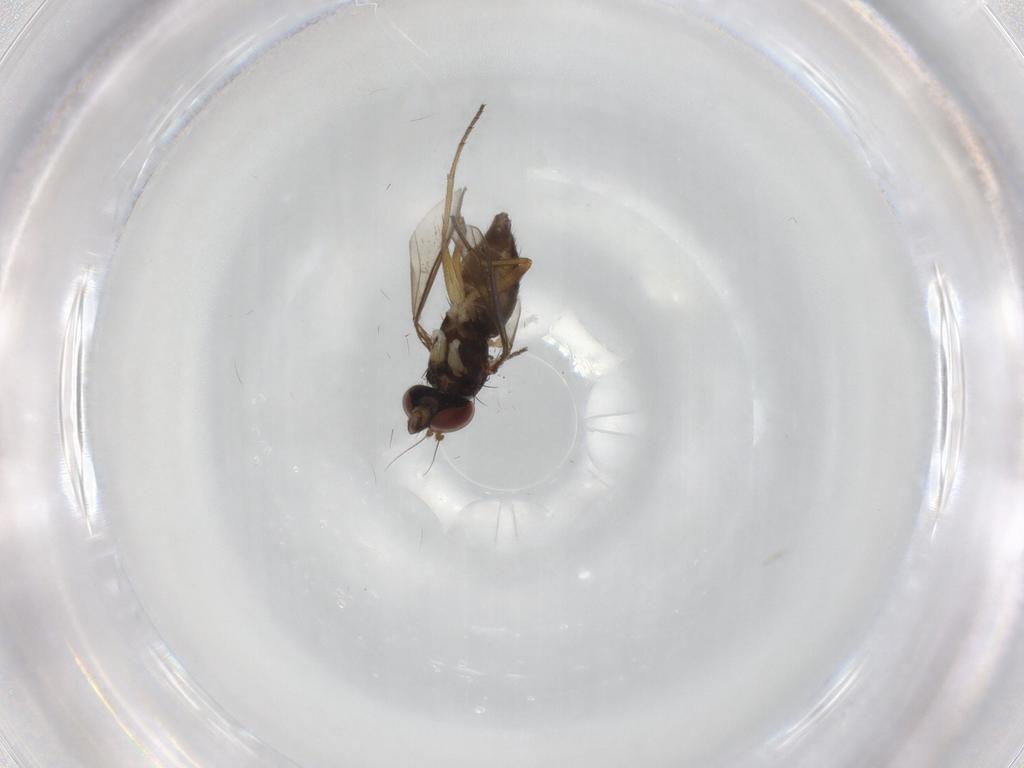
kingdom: Animalia
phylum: Arthropoda
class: Insecta
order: Diptera
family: Dolichopodidae
